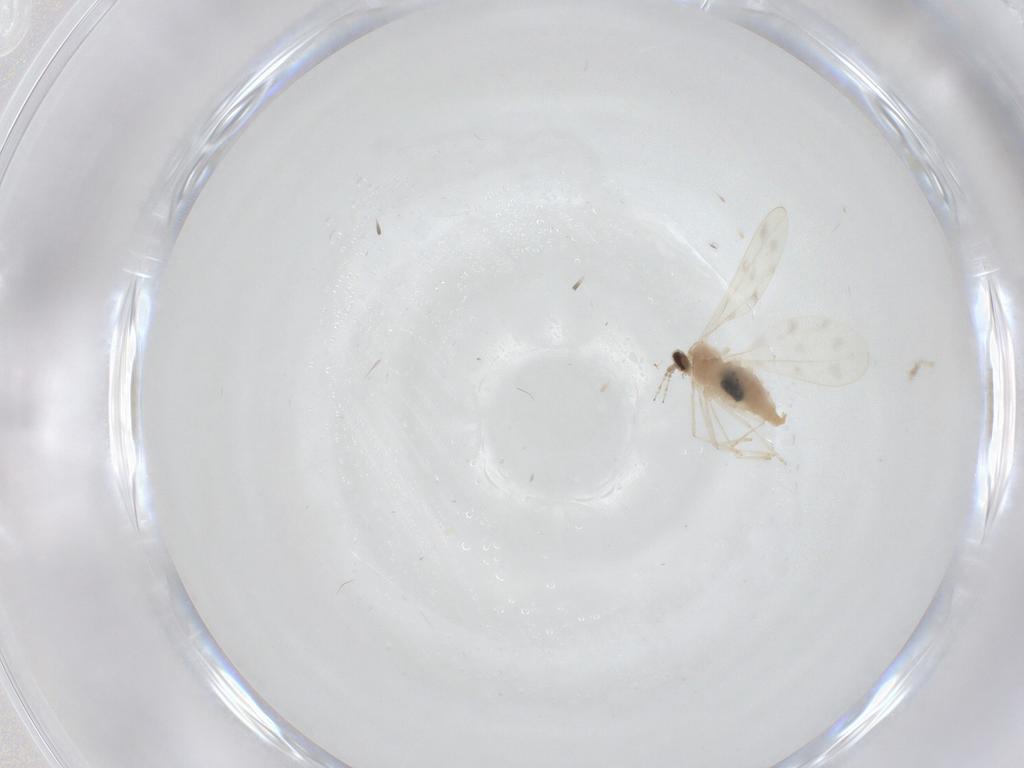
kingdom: Animalia
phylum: Arthropoda
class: Insecta
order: Diptera
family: Cecidomyiidae
